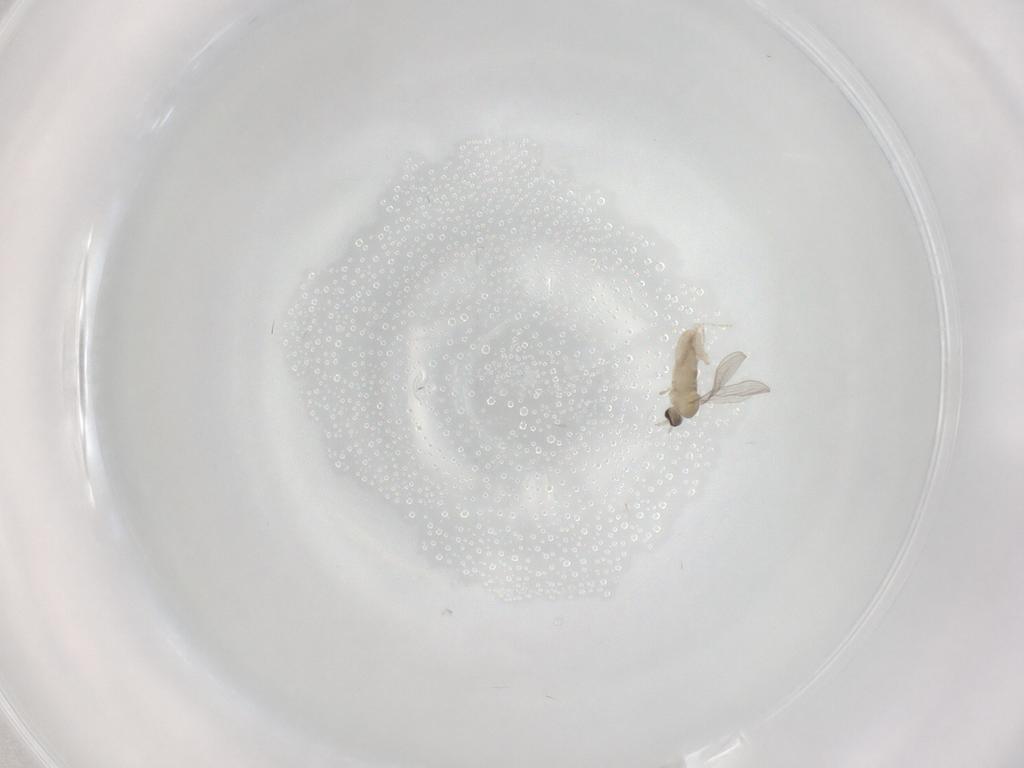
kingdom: Animalia
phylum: Arthropoda
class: Insecta
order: Diptera
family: Cecidomyiidae
